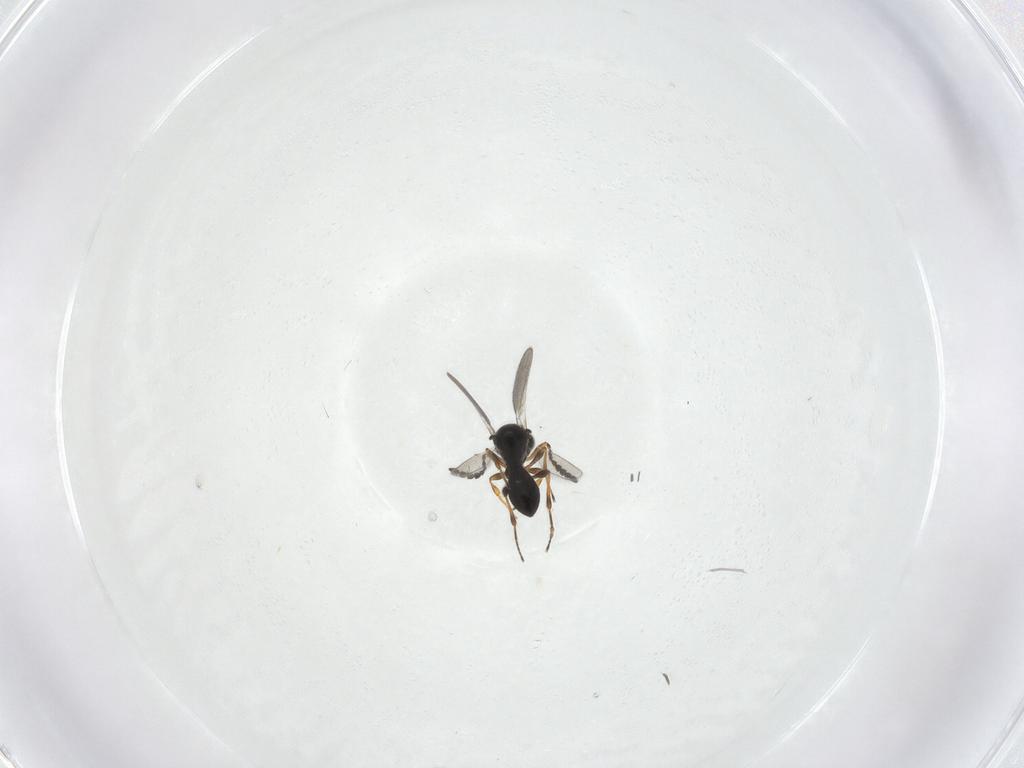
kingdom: Animalia
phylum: Arthropoda
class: Insecta
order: Hymenoptera
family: Platygastridae
